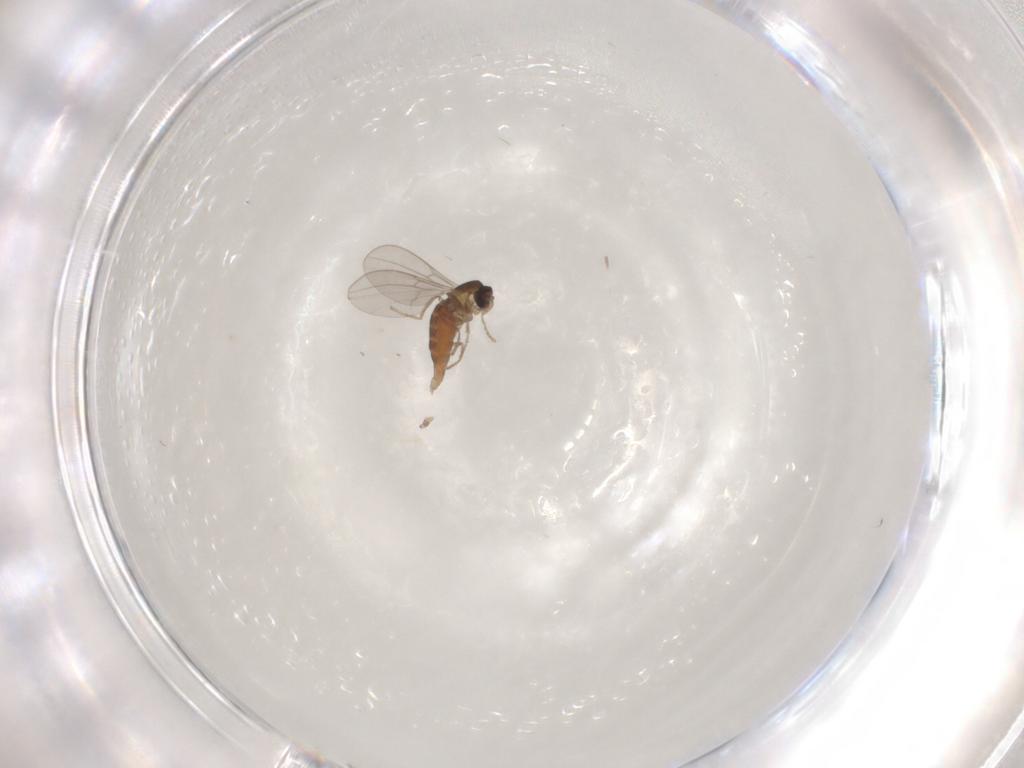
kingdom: Animalia
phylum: Arthropoda
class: Insecta
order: Diptera
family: Cecidomyiidae
